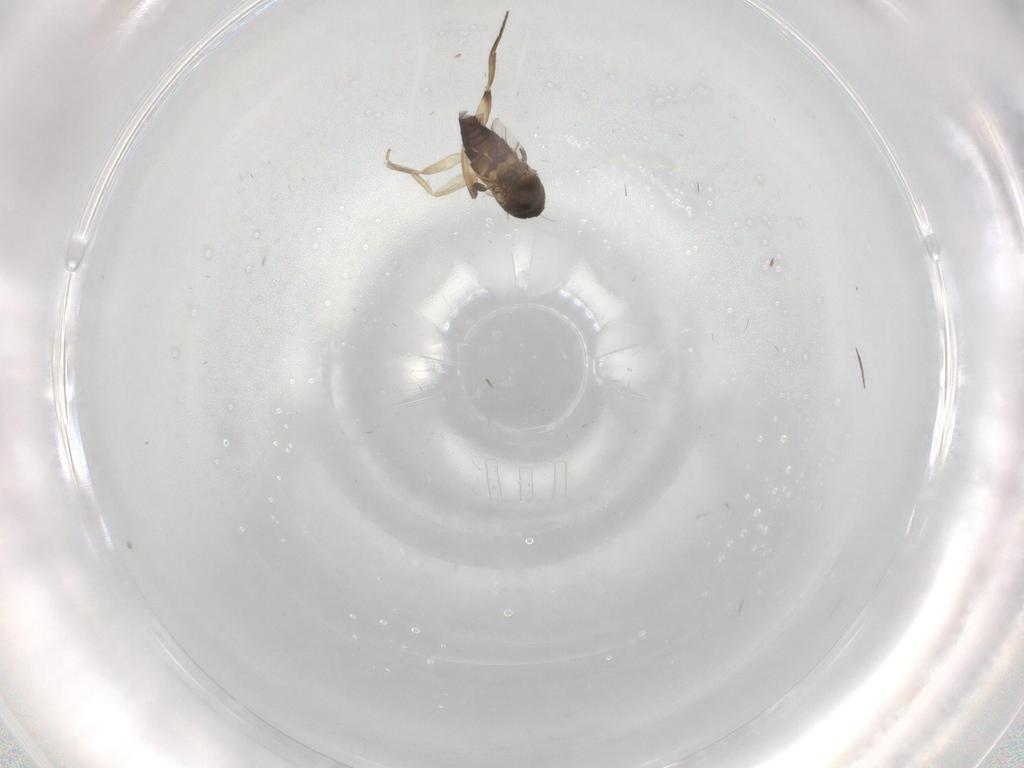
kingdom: Animalia
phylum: Arthropoda
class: Insecta
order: Diptera
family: Phoridae
